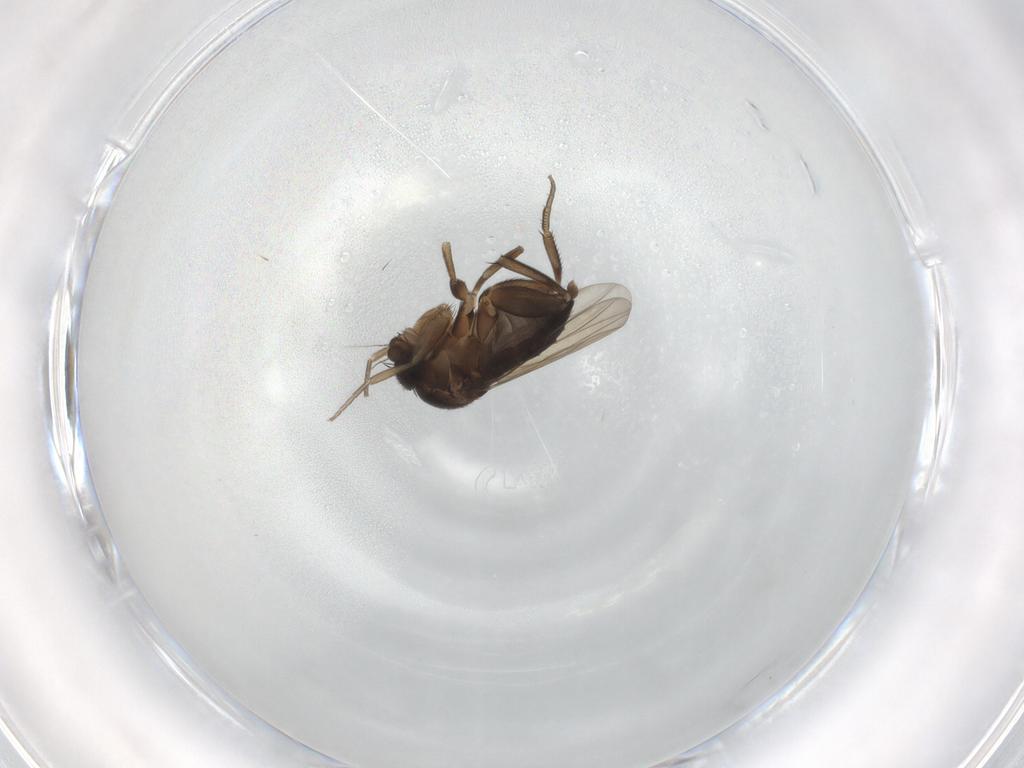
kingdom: Animalia
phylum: Arthropoda
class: Insecta
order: Diptera
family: Phoridae
